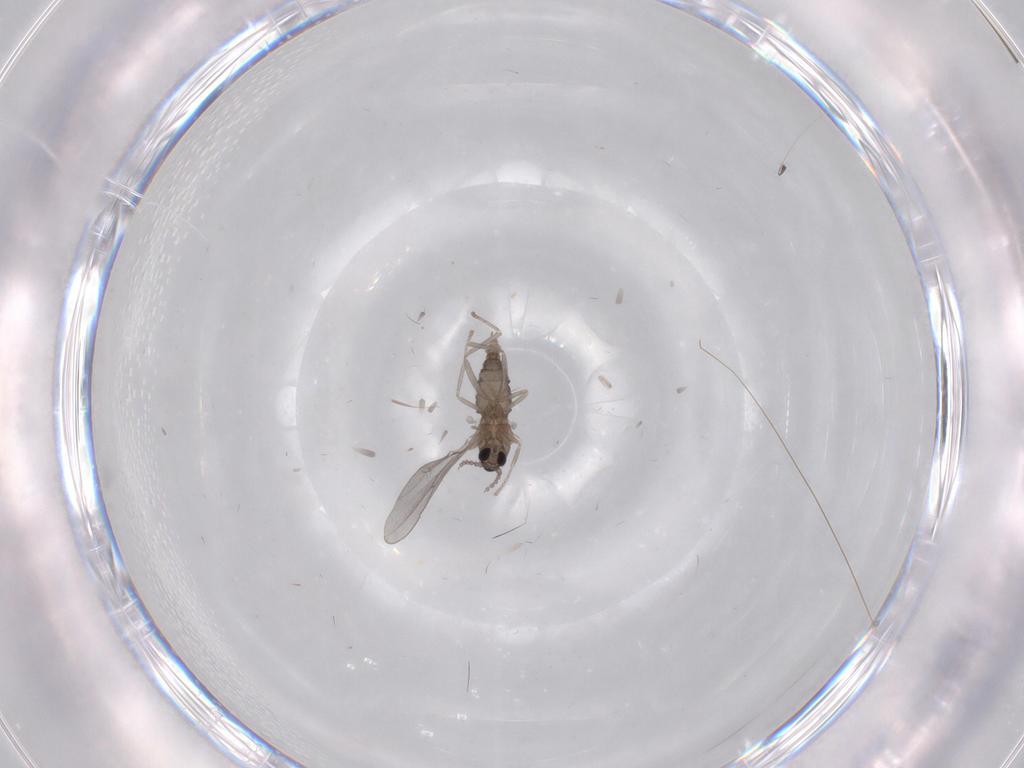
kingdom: Animalia
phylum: Arthropoda
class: Insecta
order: Diptera
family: Cecidomyiidae
